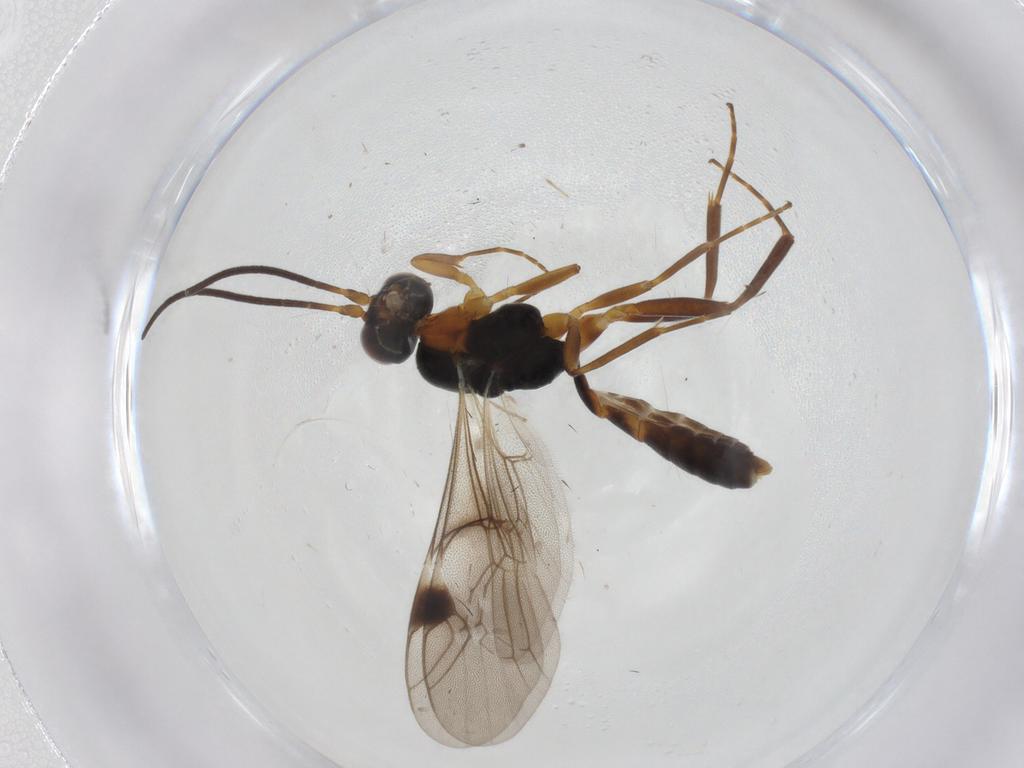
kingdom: Animalia
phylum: Arthropoda
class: Insecta
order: Hymenoptera
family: Ichneumonidae
